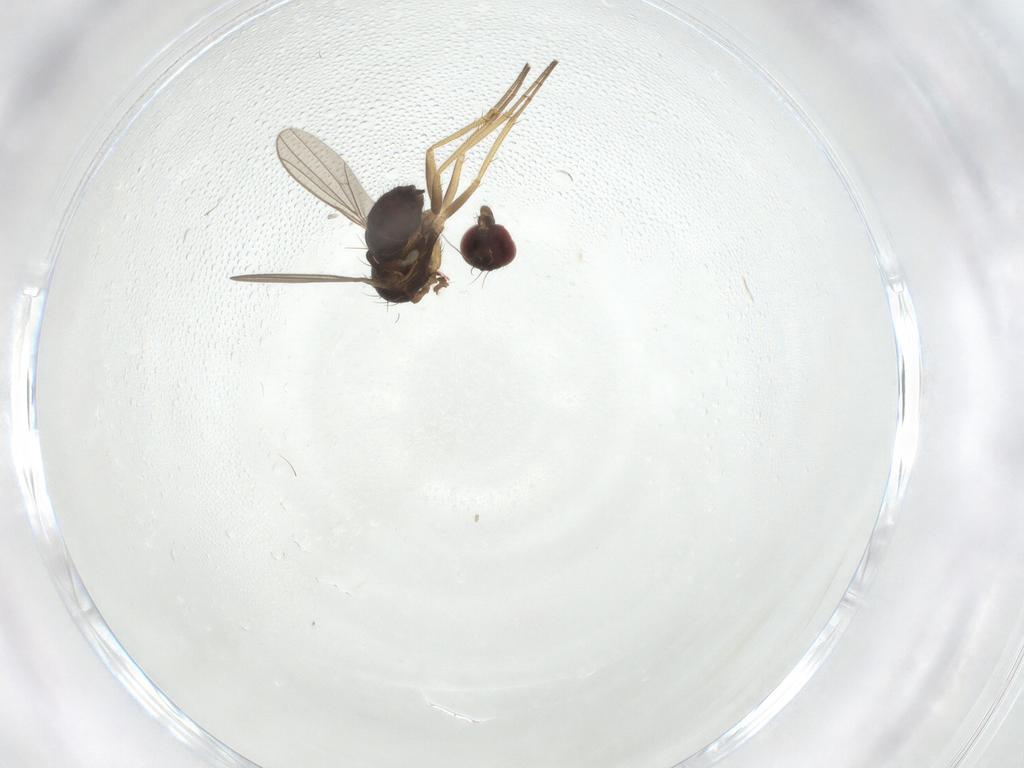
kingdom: Animalia
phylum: Arthropoda
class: Insecta
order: Diptera
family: Dolichopodidae
